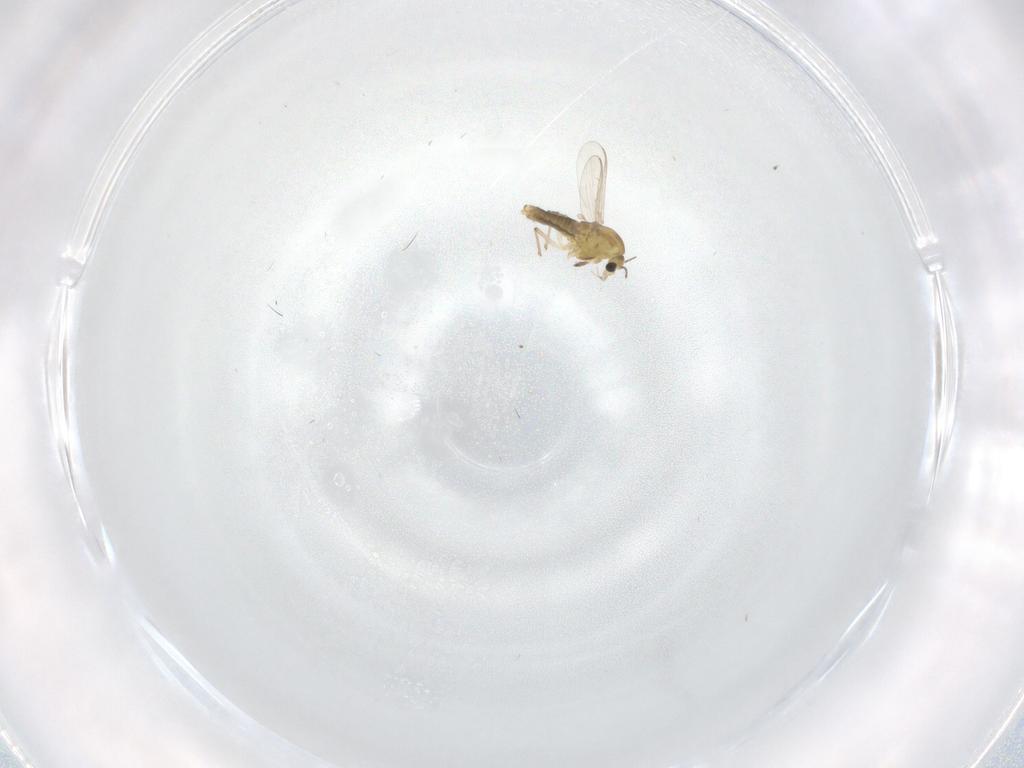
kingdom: Animalia
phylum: Arthropoda
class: Insecta
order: Diptera
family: Chironomidae
